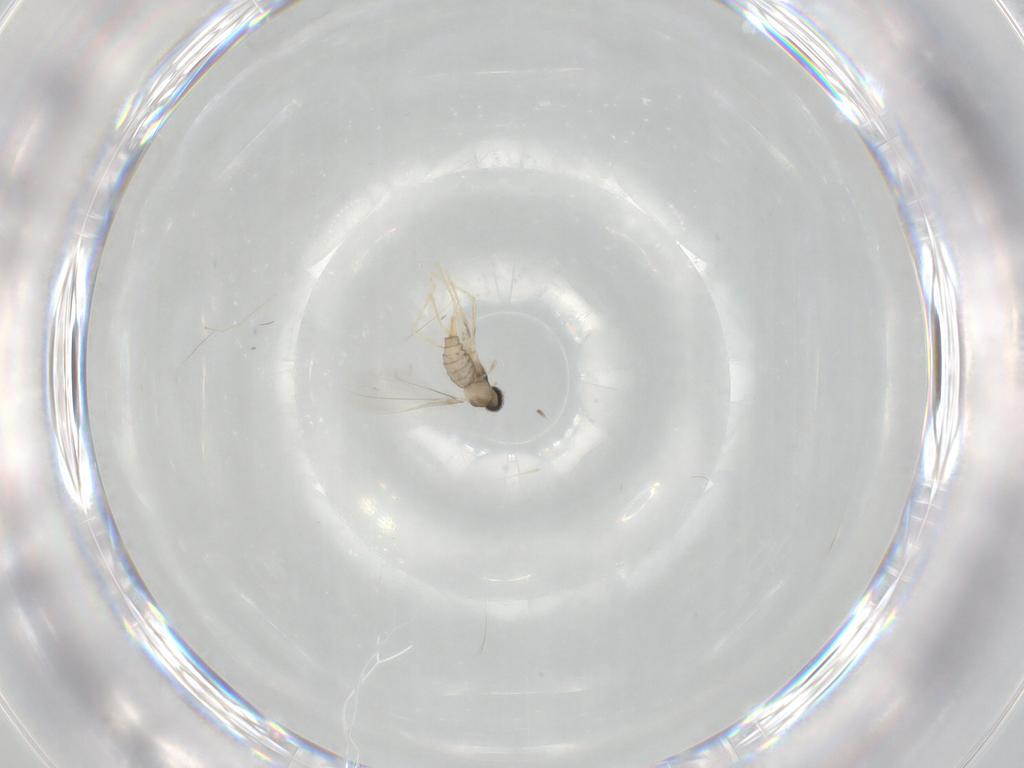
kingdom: Animalia
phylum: Arthropoda
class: Insecta
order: Diptera
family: Cecidomyiidae
